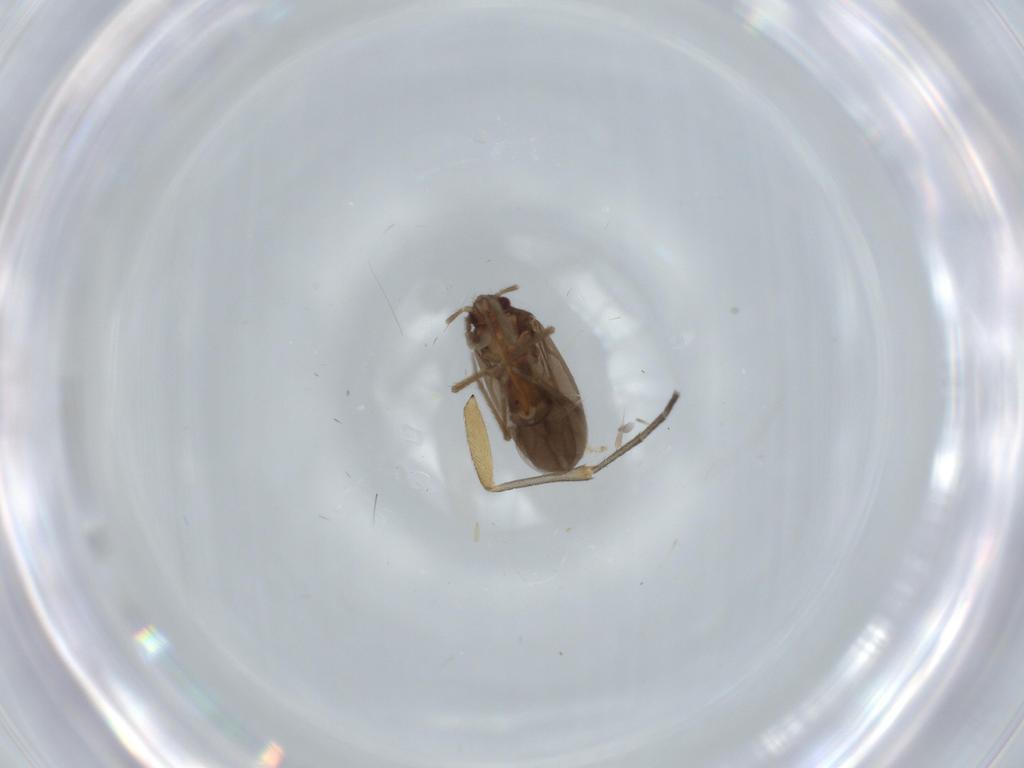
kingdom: Animalia
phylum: Arthropoda
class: Insecta
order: Hemiptera
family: Ceratocombidae
